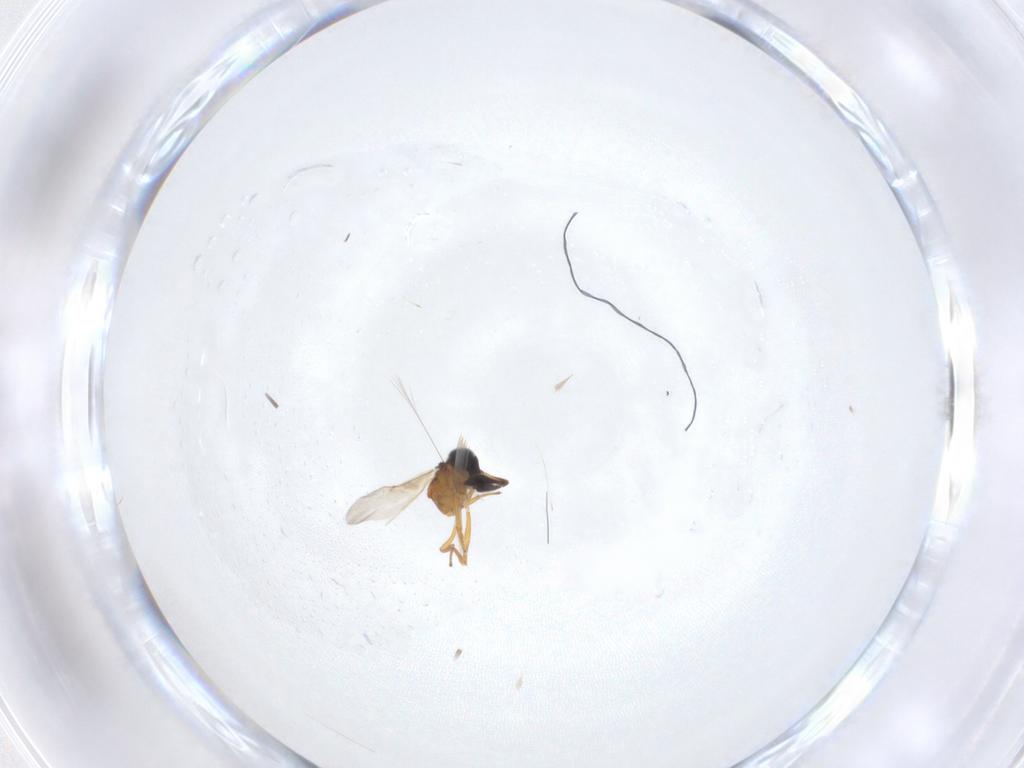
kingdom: Animalia
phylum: Arthropoda
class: Insecta
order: Hymenoptera
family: Encyrtidae
